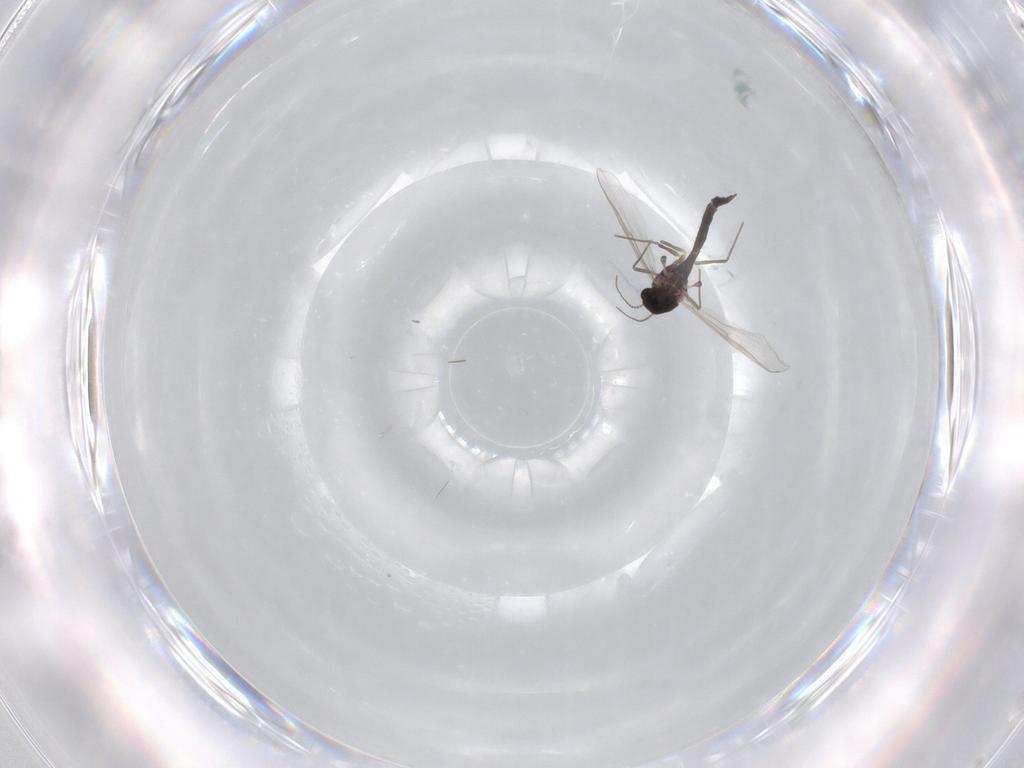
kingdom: Animalia
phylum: Arthropoda
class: Insecta
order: Diptera
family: Chironomidae
